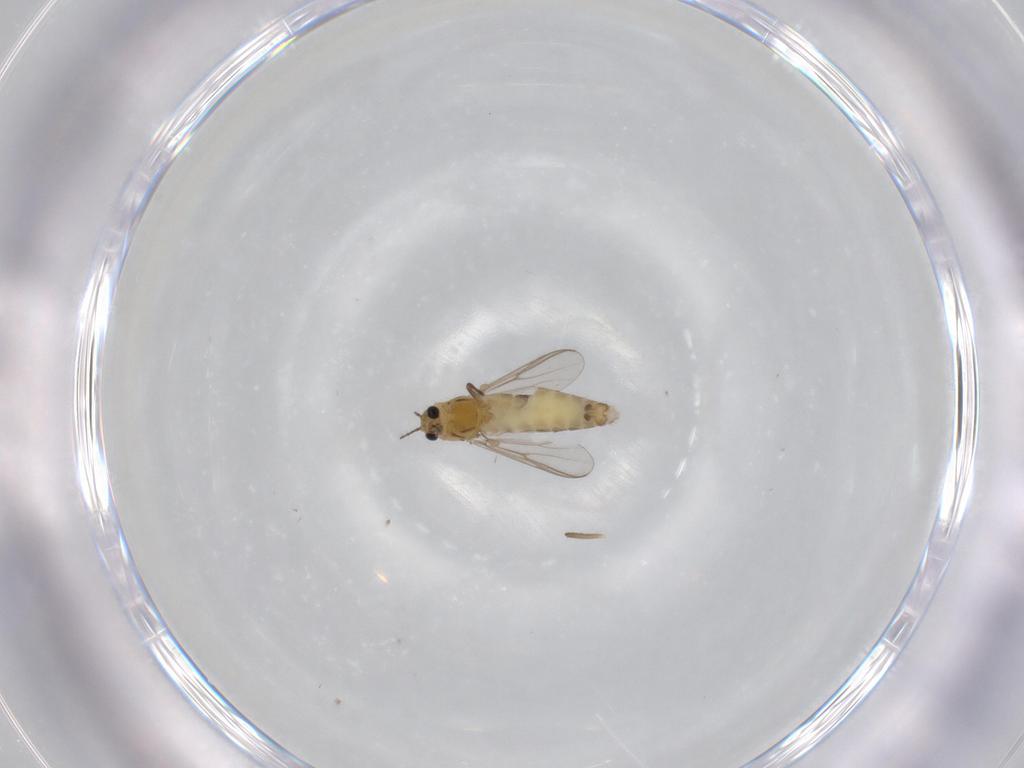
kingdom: Animalia
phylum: Arthropoda
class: Insecta
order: Diptera
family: Chironomidae
